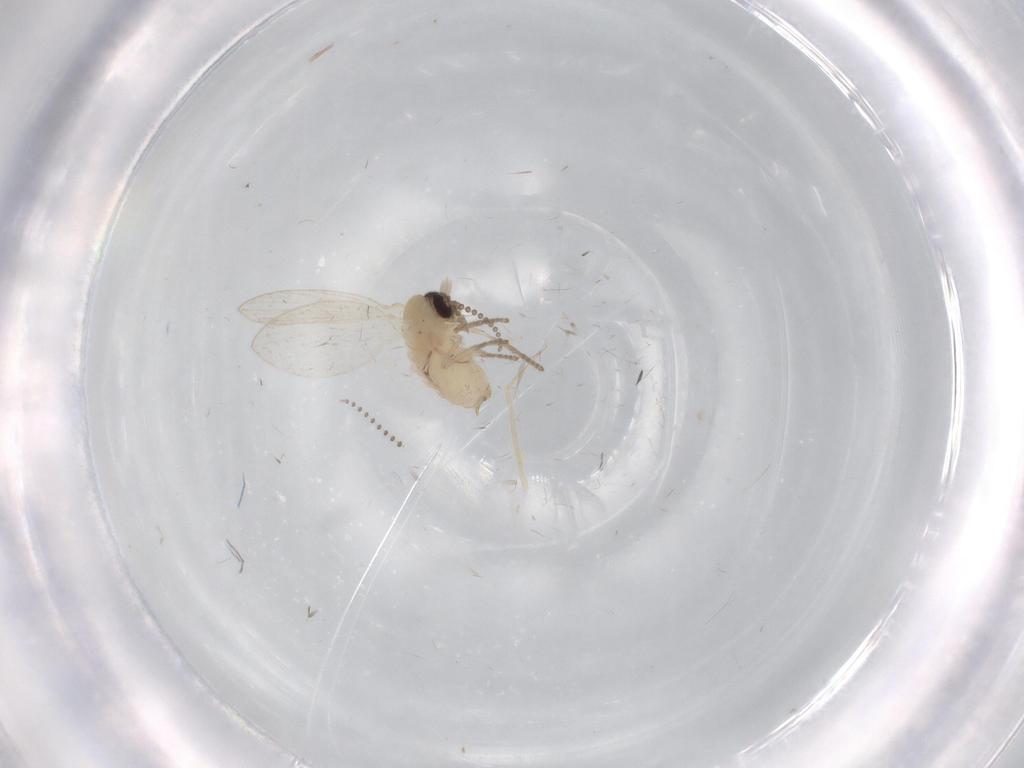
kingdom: Animalia
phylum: Arthropoda
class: Insecta
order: Diptera
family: Psychodidae
